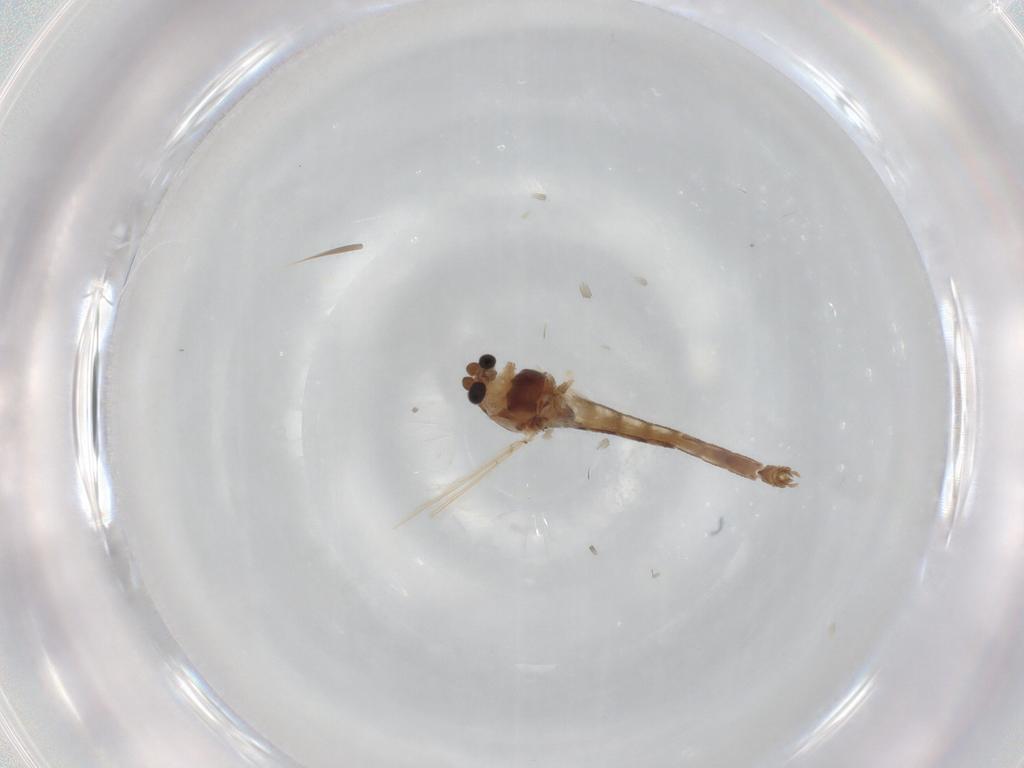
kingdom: Animalia
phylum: Arthropoda
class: Insecta
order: Diptera
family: Chironomidae
